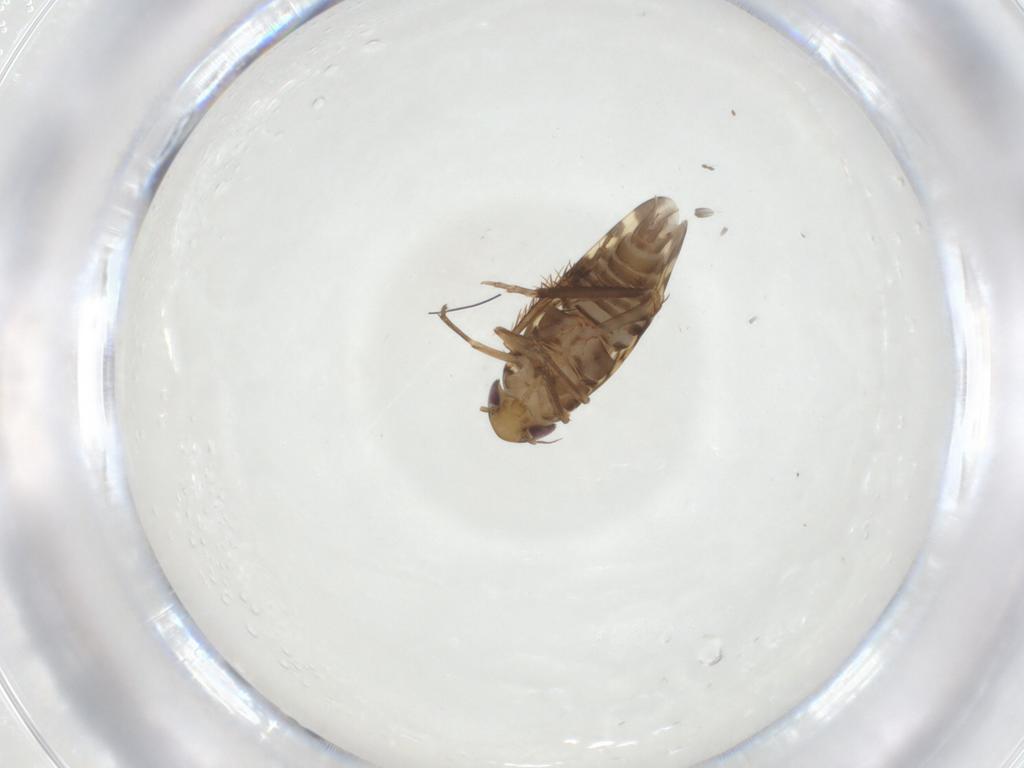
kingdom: Animalia
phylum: Arthropoda
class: Insecta
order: Hemiptera
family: Cicadellidae
